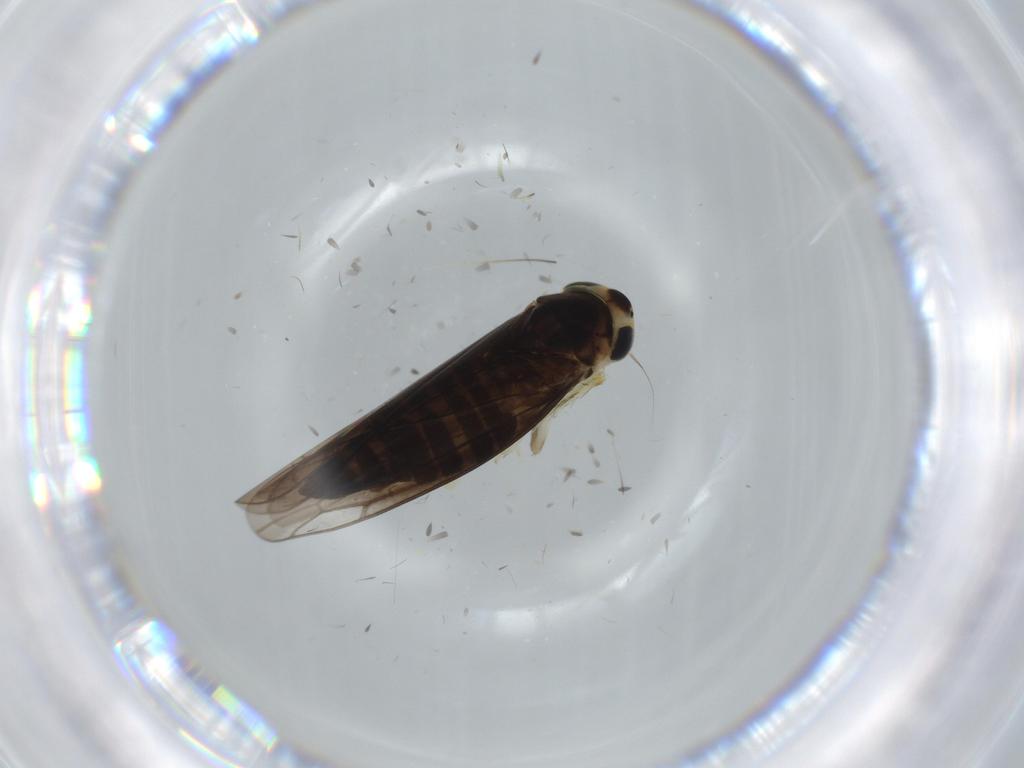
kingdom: Animalia
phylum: Arthropoda
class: Insecta
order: Hemiptera
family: Cicadellidae
